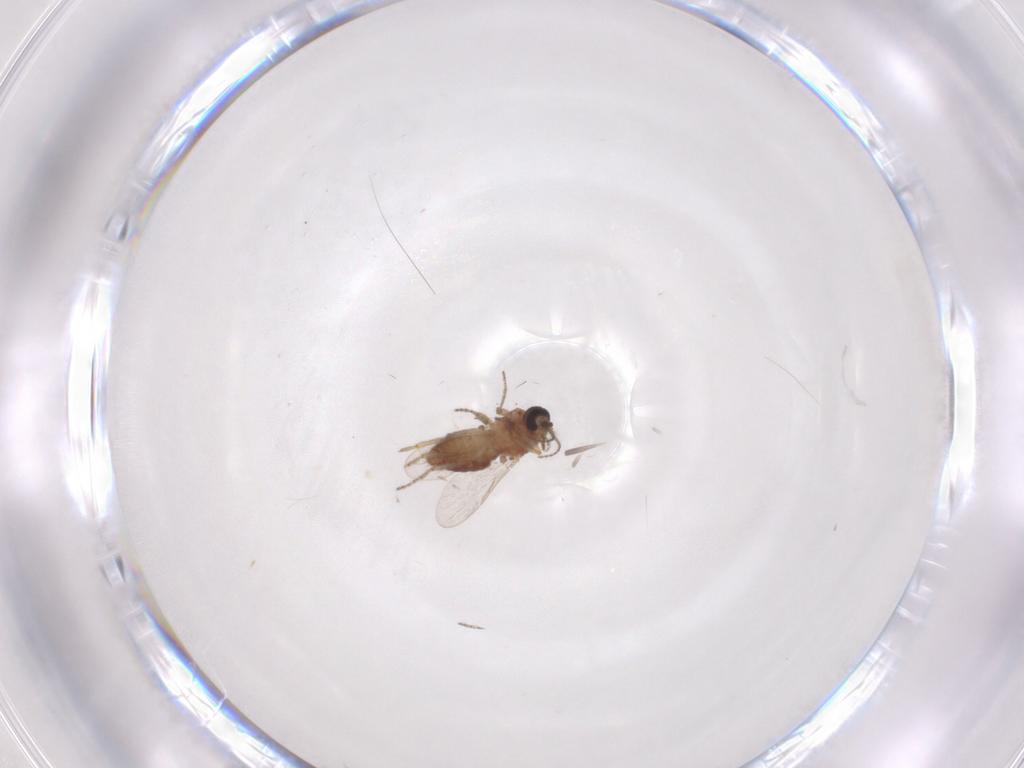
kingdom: Animalia
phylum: Arthropoda
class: Insecta
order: Diptera
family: Ceratopogonidae
